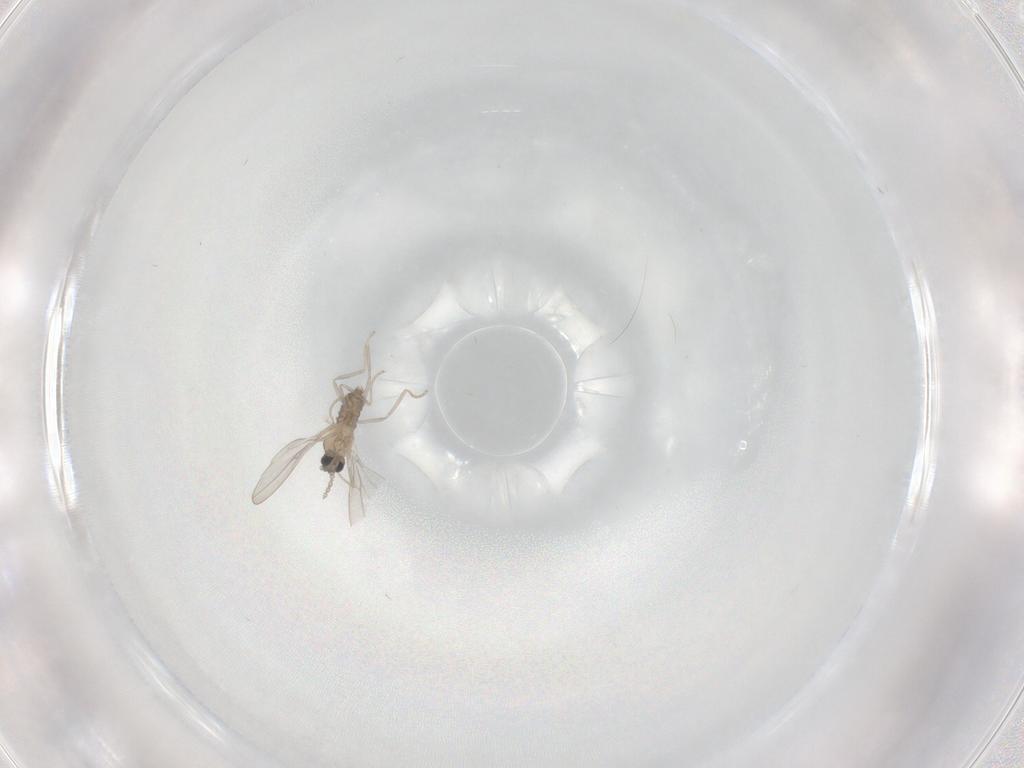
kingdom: Animalia
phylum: Arthropoda
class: Insecta
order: Diptera
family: Cecidomyiidae
